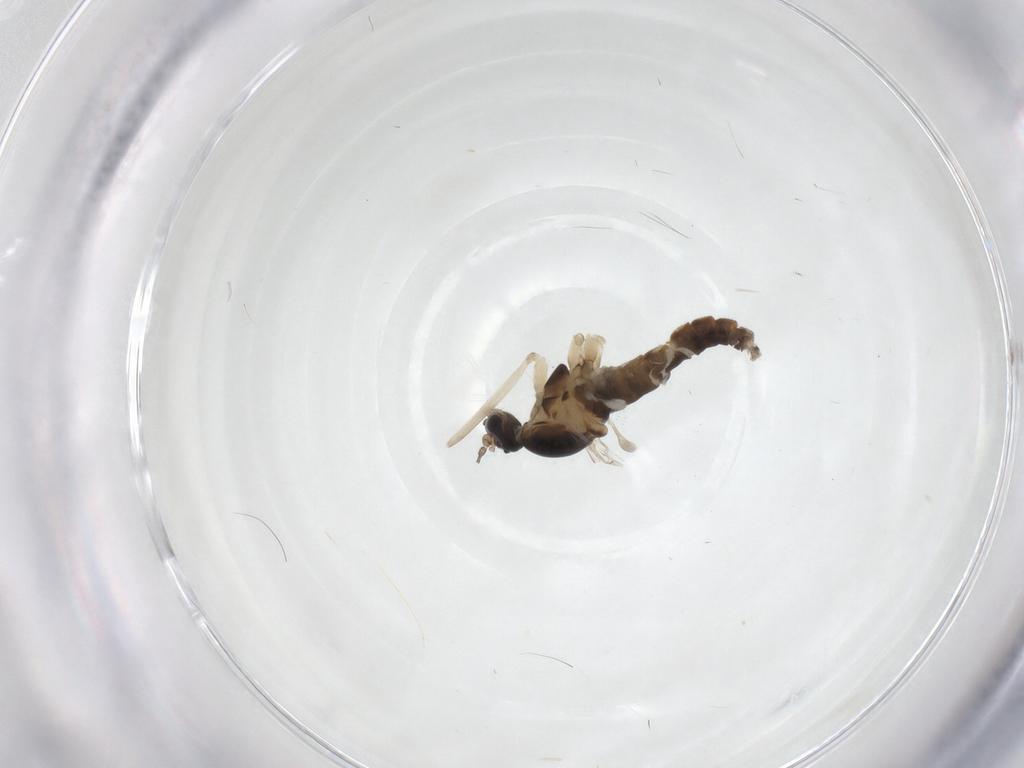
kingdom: Animalia
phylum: Arthropoda
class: Insecta
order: Diptera
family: Cecidomyiidae
